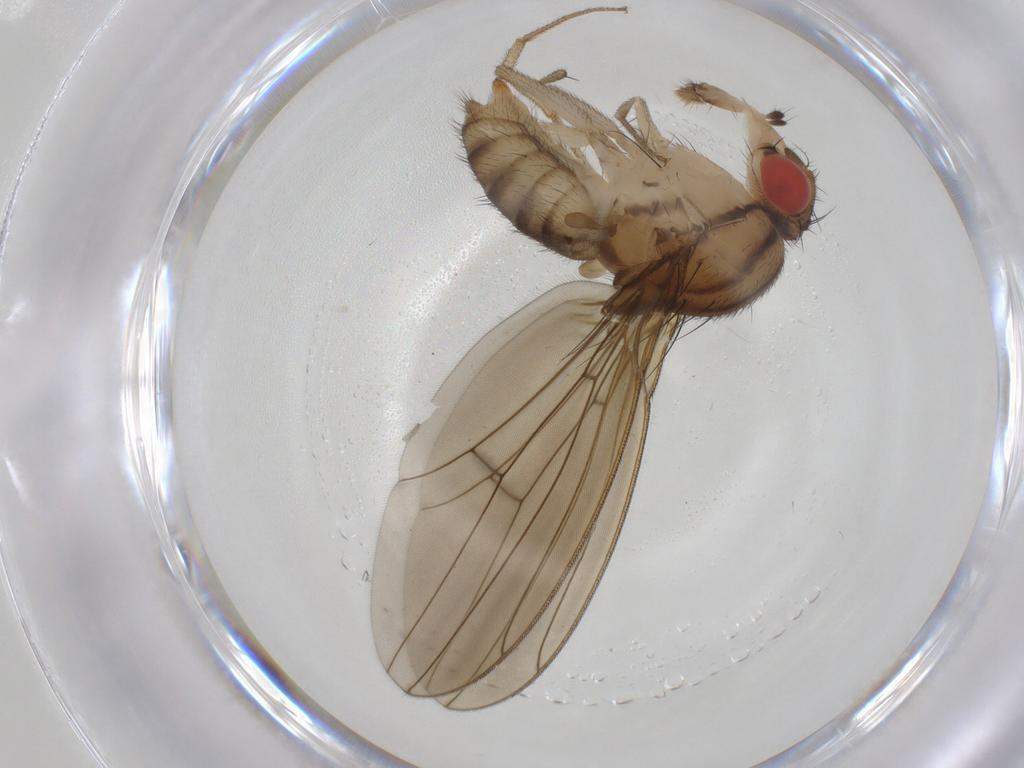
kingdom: Animalia
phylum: Arthropoda
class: Insecta
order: Diptera
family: Drosophilidae
